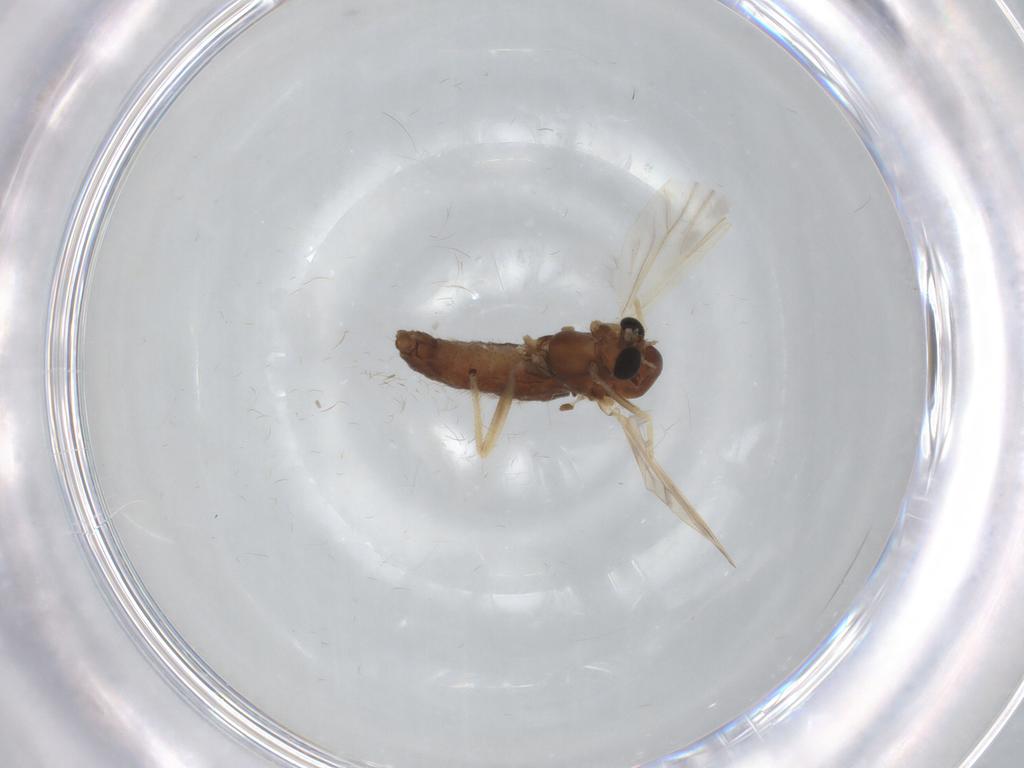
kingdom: Animalia
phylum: Arthropoda
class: Insecta
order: Diptera
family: Chironomidae
